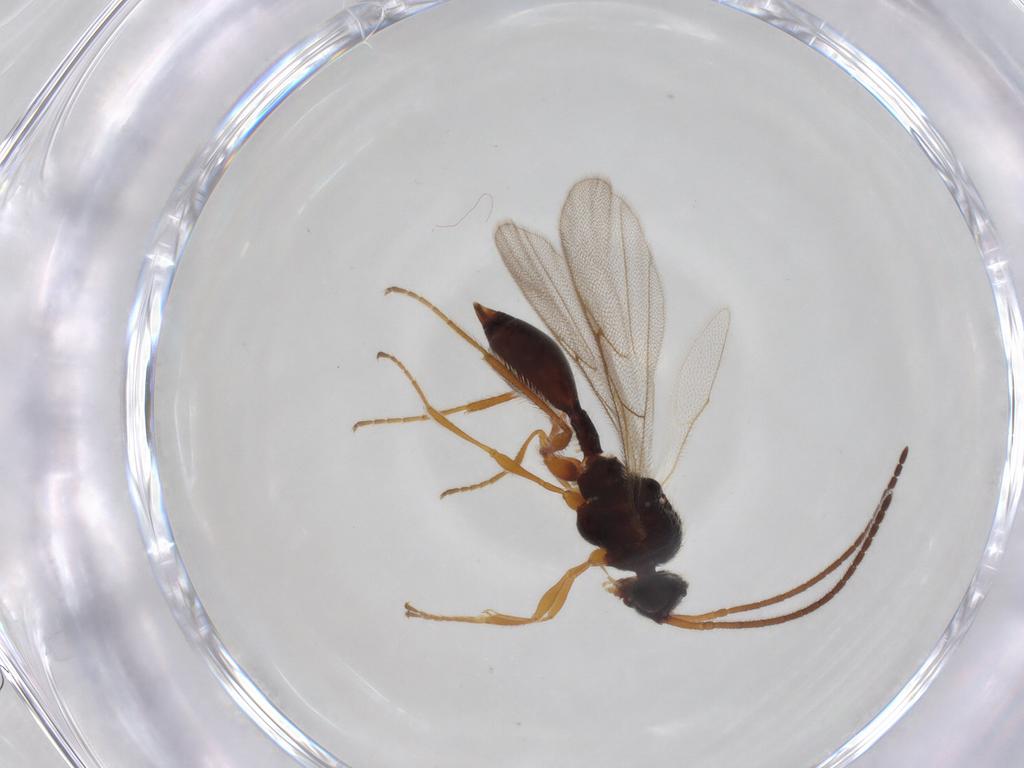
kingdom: Animalia
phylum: Arthropoda
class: Insecta
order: Hymenoptera
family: Diapriidae
